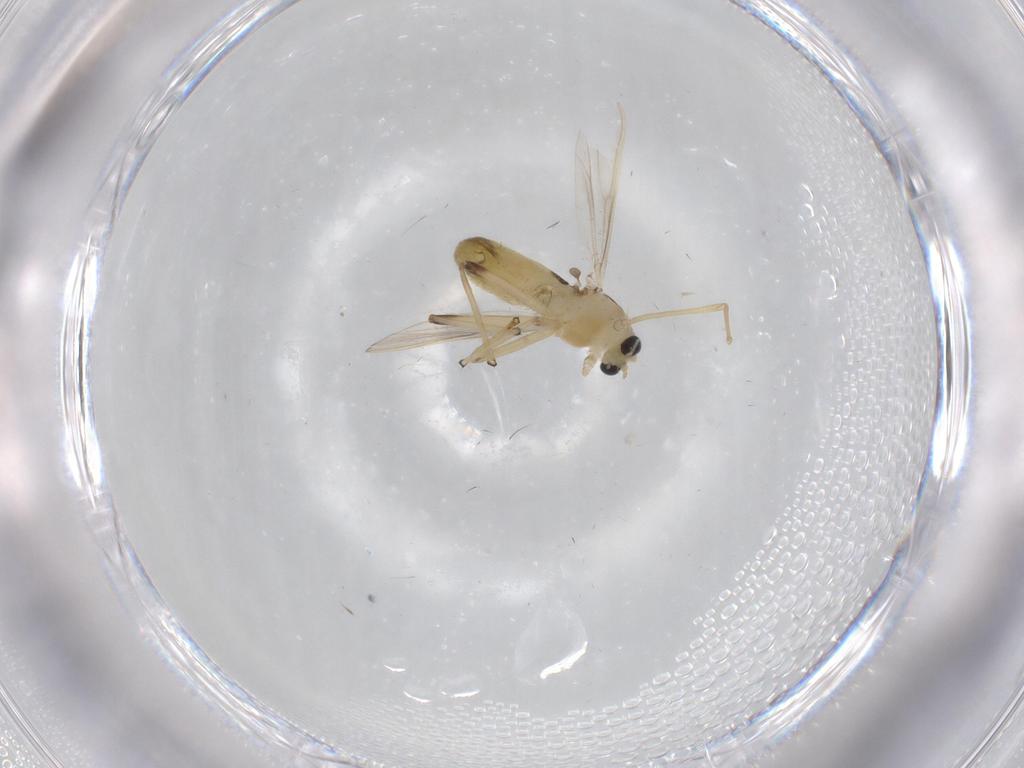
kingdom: Animalia
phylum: Arthropoda
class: Insecta
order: Diptera
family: Chironomidae
